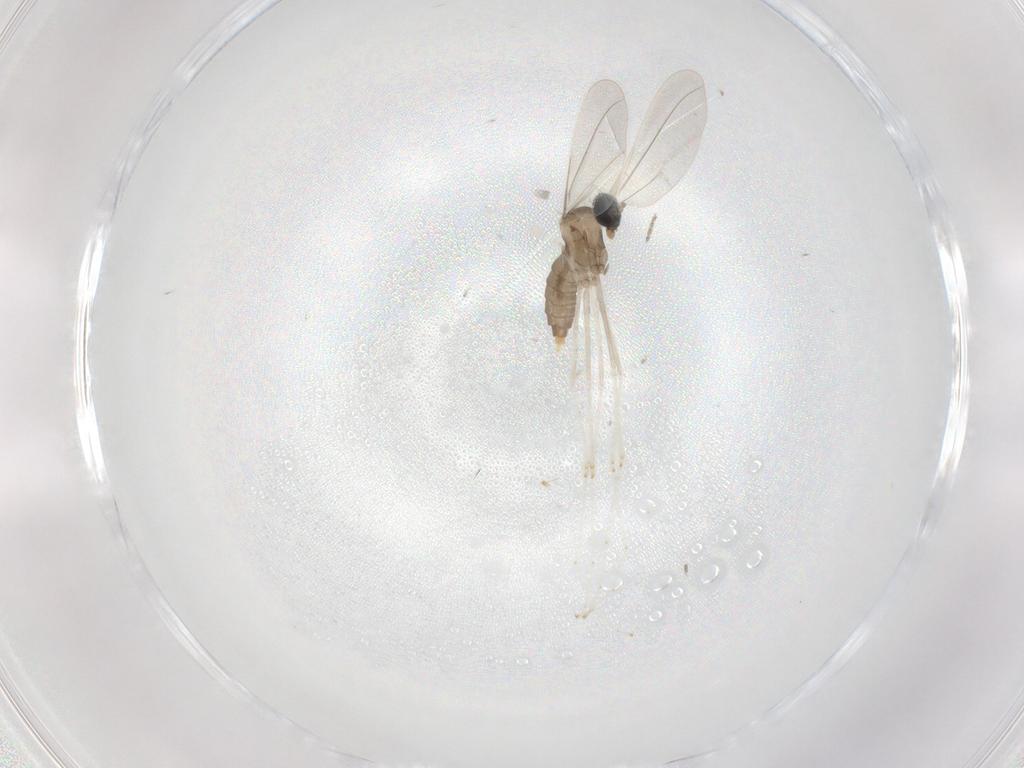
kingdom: Animalia
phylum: Arthropoda
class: Insecta
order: Diptera
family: Cecidomyiidae
